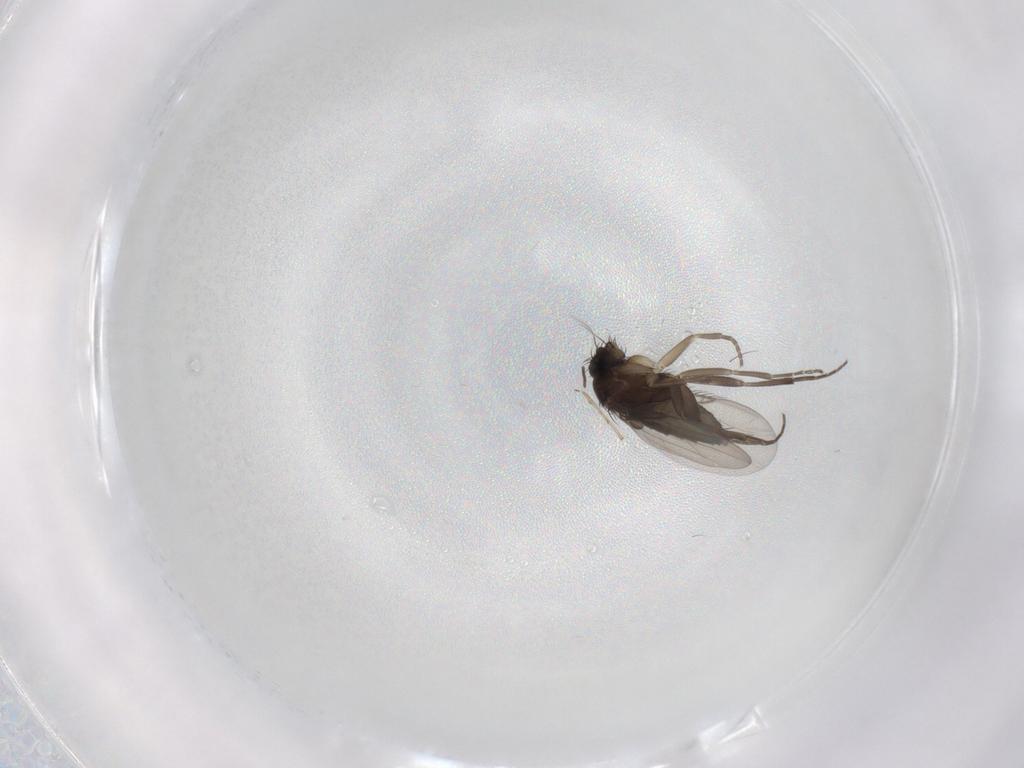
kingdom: Animalia
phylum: Arthropoda
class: Insecta
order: Diptera
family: Phoridae
